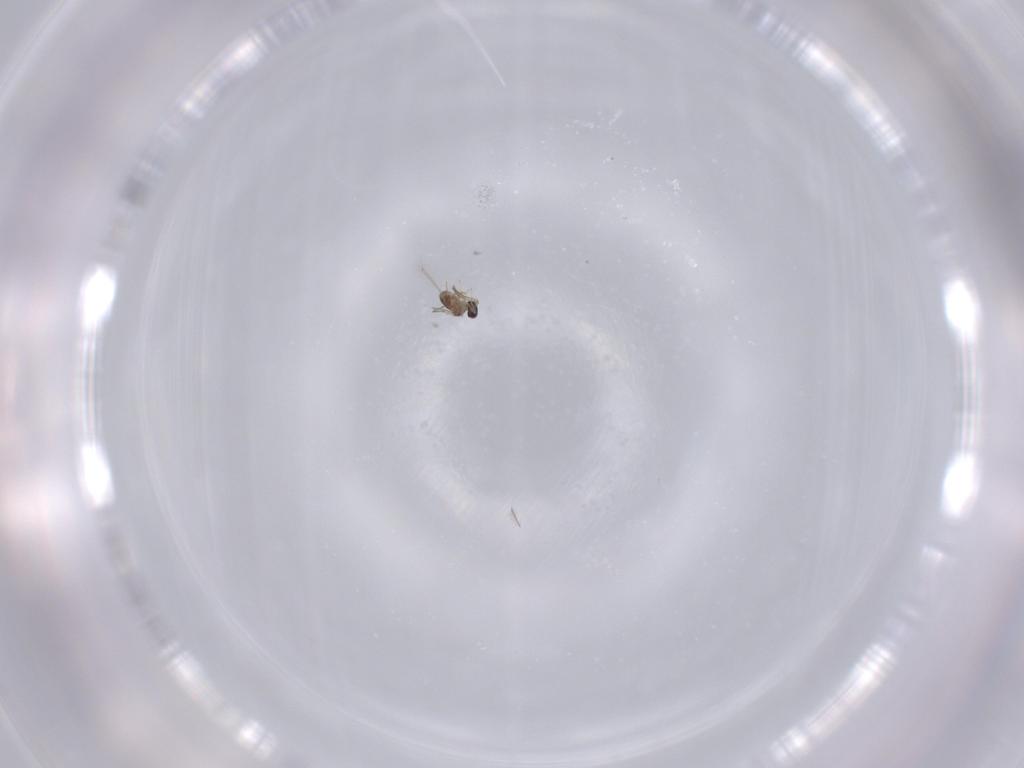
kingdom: Animalia
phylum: Arthropoda
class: Insecta
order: Hymenoptera
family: Mymaridae
